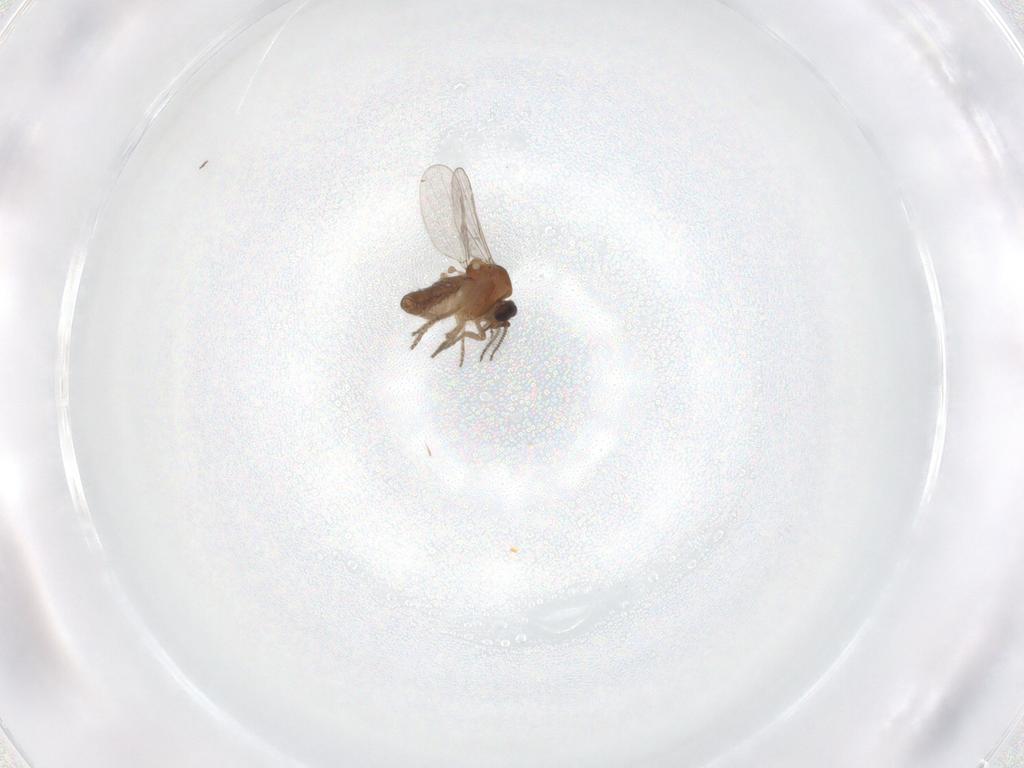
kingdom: Animalia
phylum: Arthropoda
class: Insecta
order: Diptera
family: Ceratopogonidae
